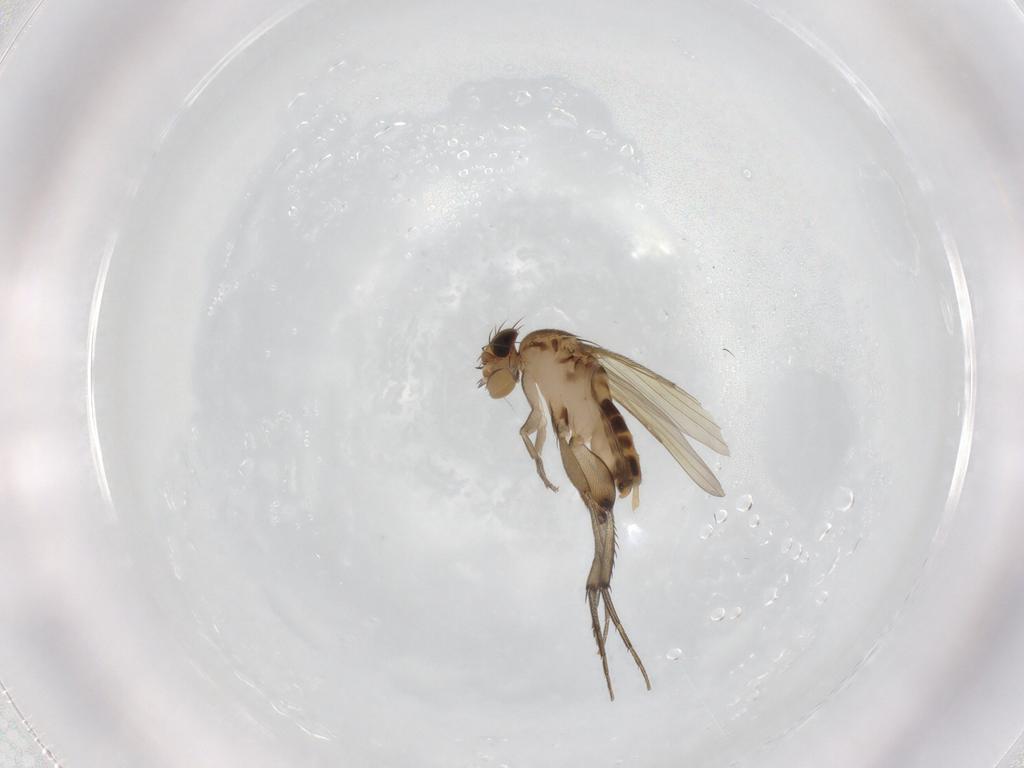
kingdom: Animalia
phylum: Arthropoda
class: Insecta
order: Diptera
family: Phoridae
